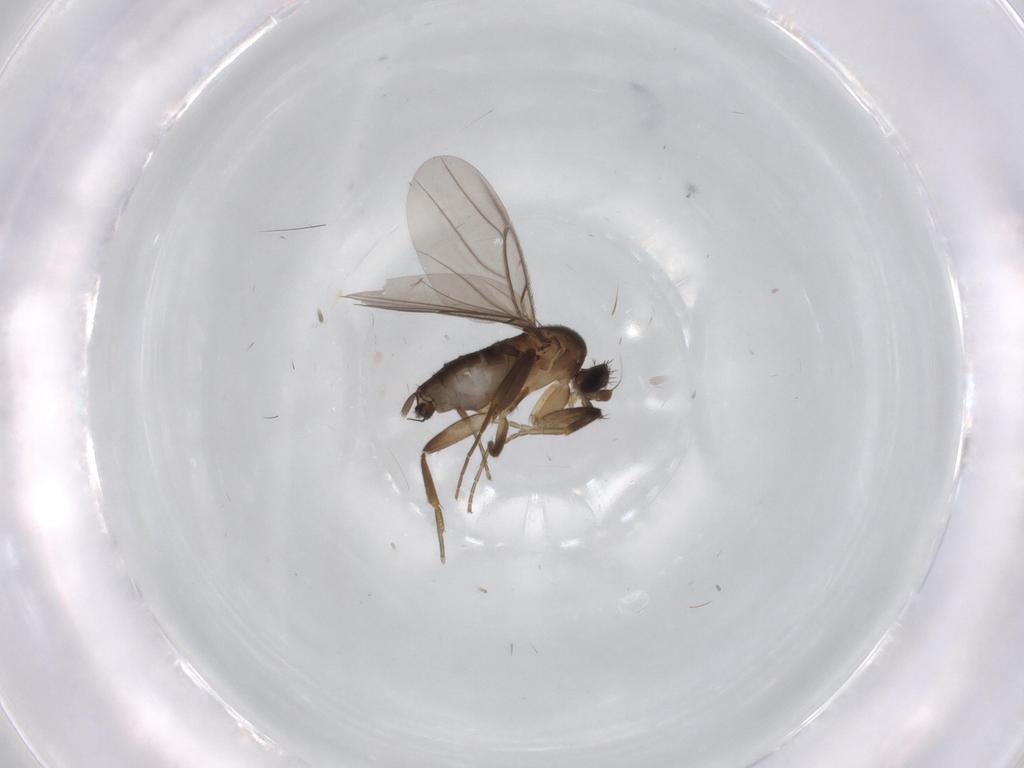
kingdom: Animalia
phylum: Arthropoda
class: Insecta
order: Diptera
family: Phoridae
